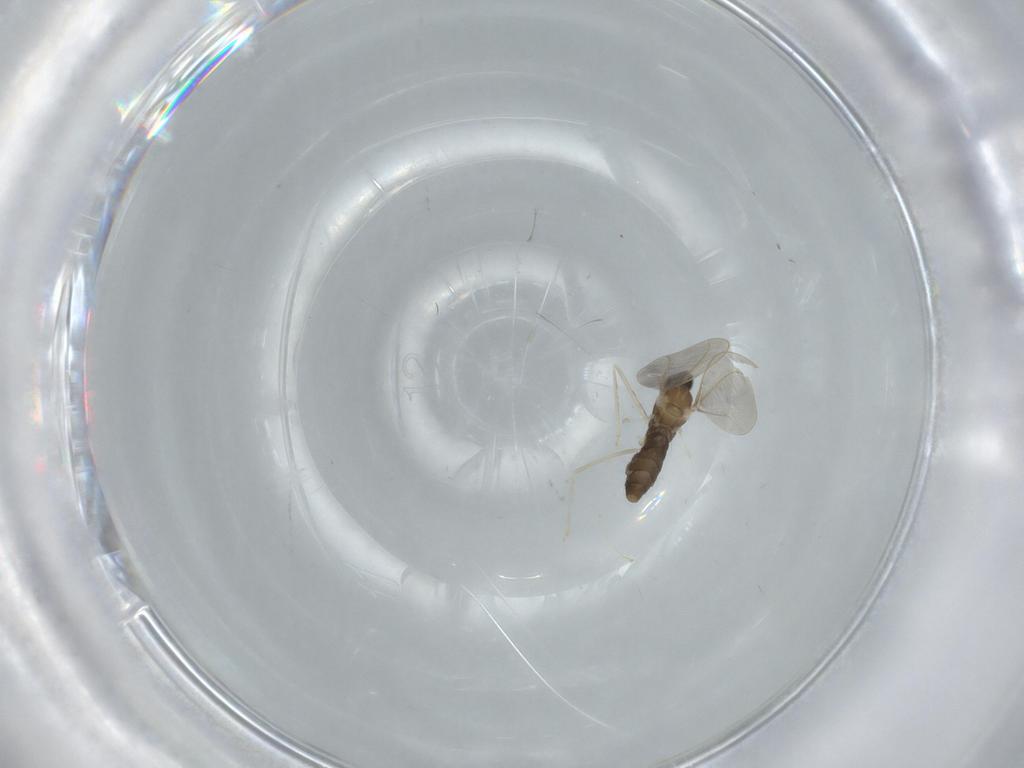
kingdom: Animalia
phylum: Arthropoda
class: Insecta
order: Diptera
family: Cecidomyiidae
